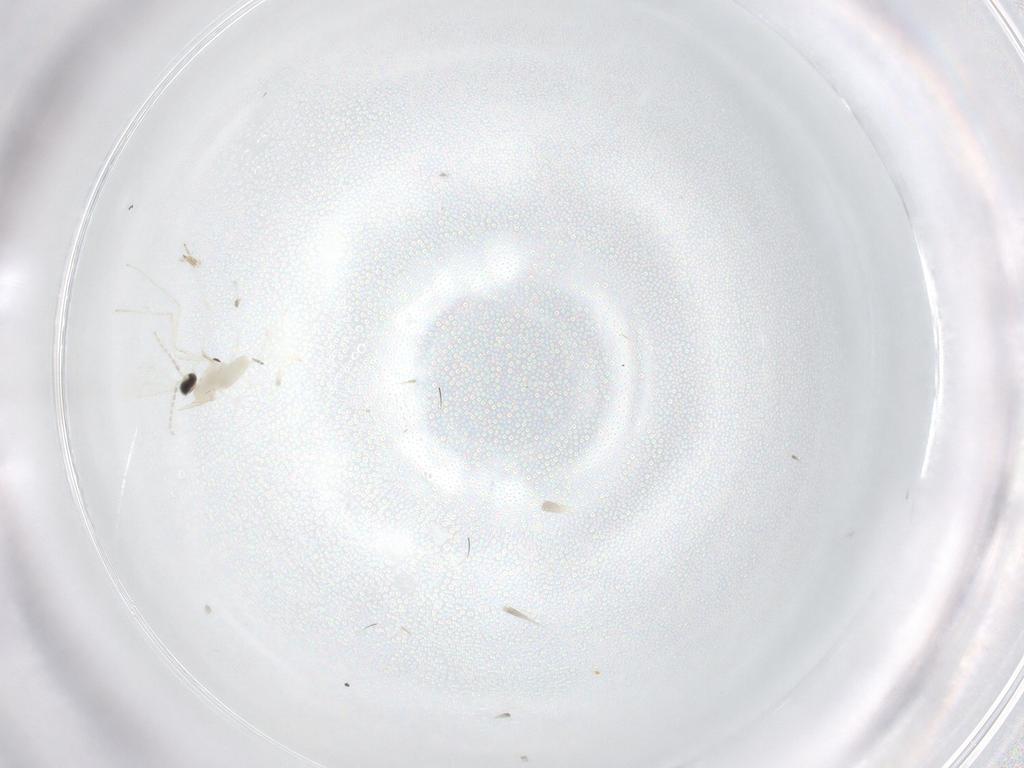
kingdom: Animalia
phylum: Arthropoda
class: Insecta
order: Diptera
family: Cecidomyiidae
